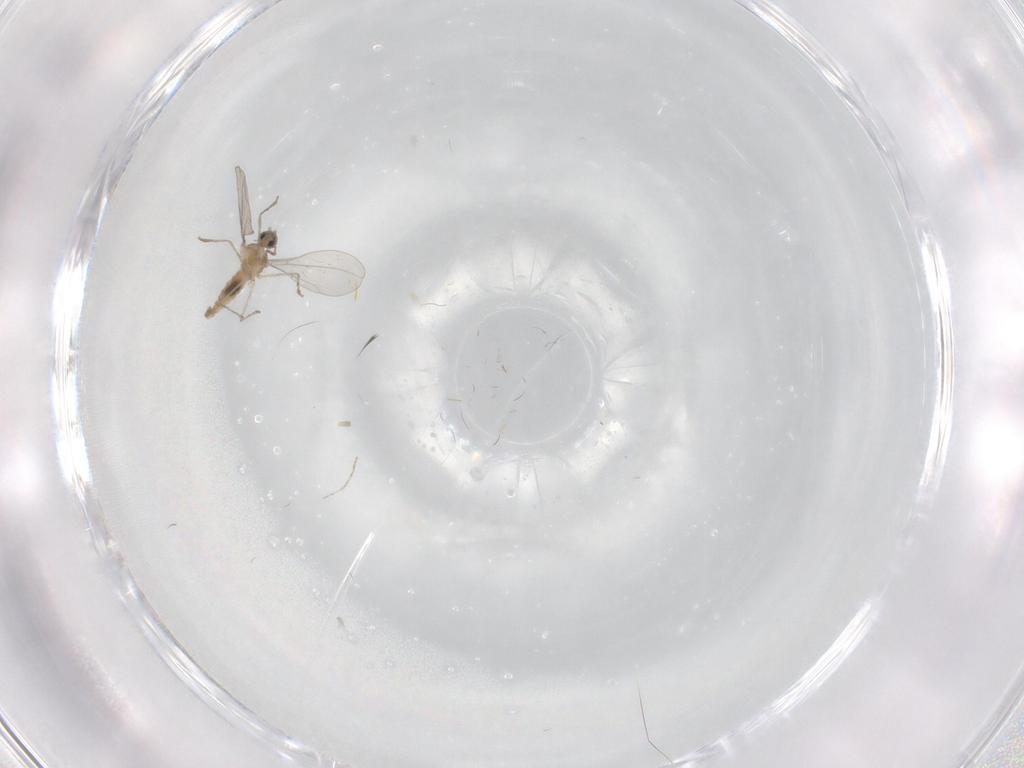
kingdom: Animalia
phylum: Arthropoda
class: Insecta
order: Diptera
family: Cecidomyiidae
